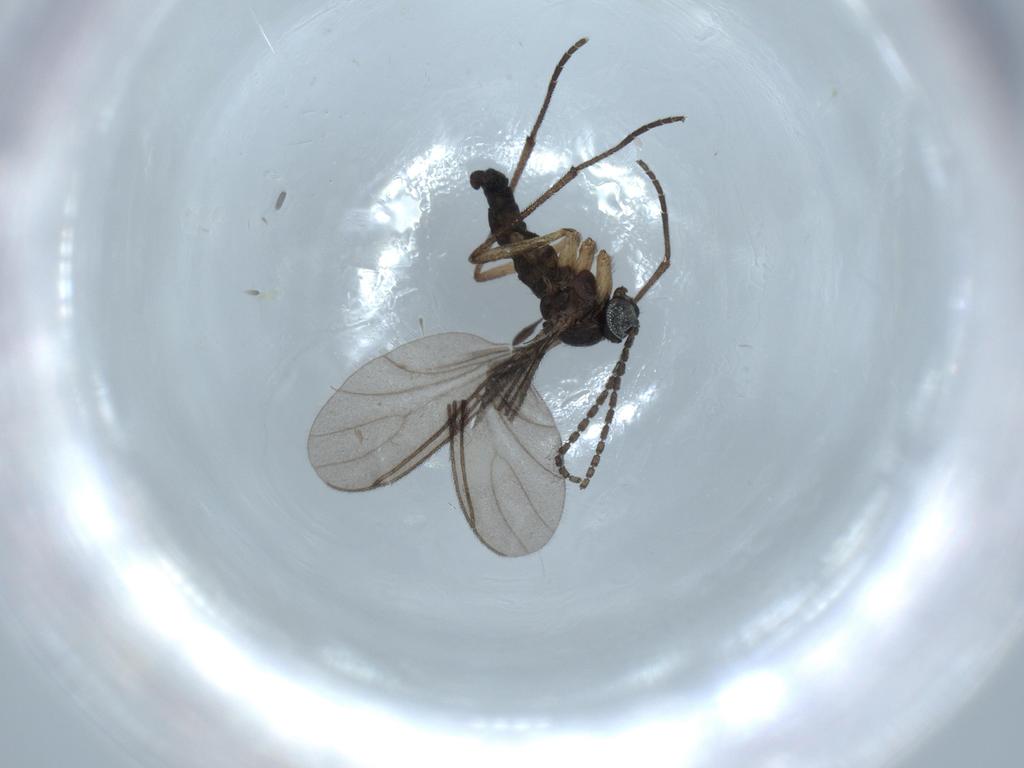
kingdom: Animalia
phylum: Arthropoda
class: Insecta
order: Diptera
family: Sciaridae
